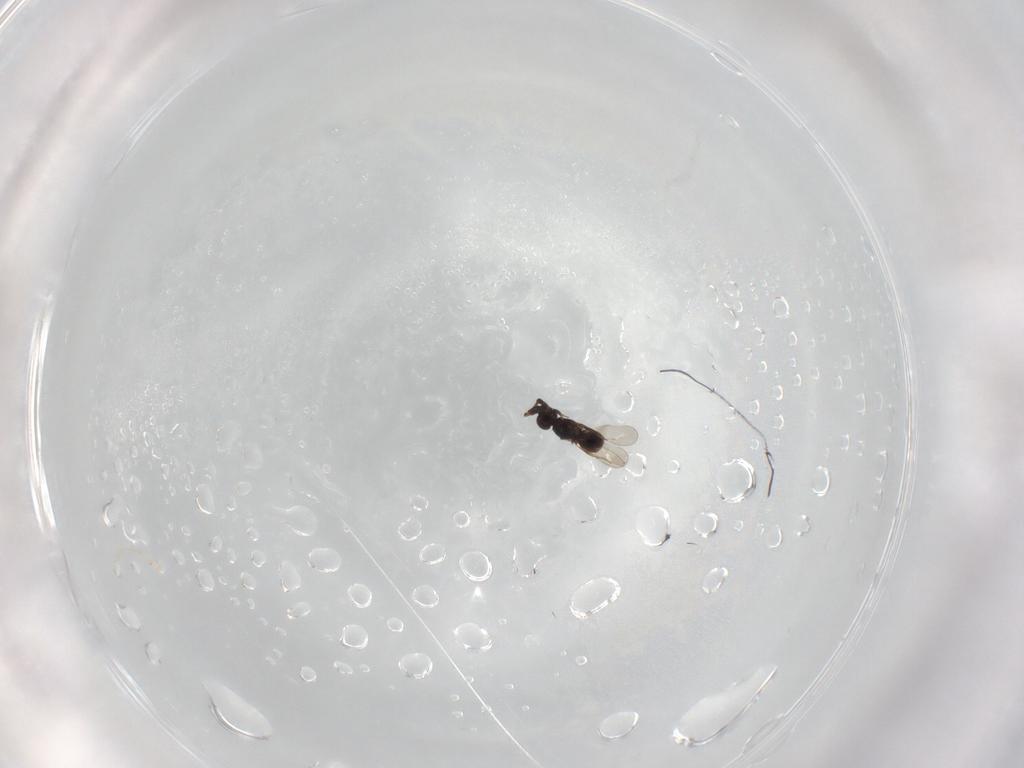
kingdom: Animalia
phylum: Arthropoda
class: Insecta
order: Hymenoptera
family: Ceraphronidae
